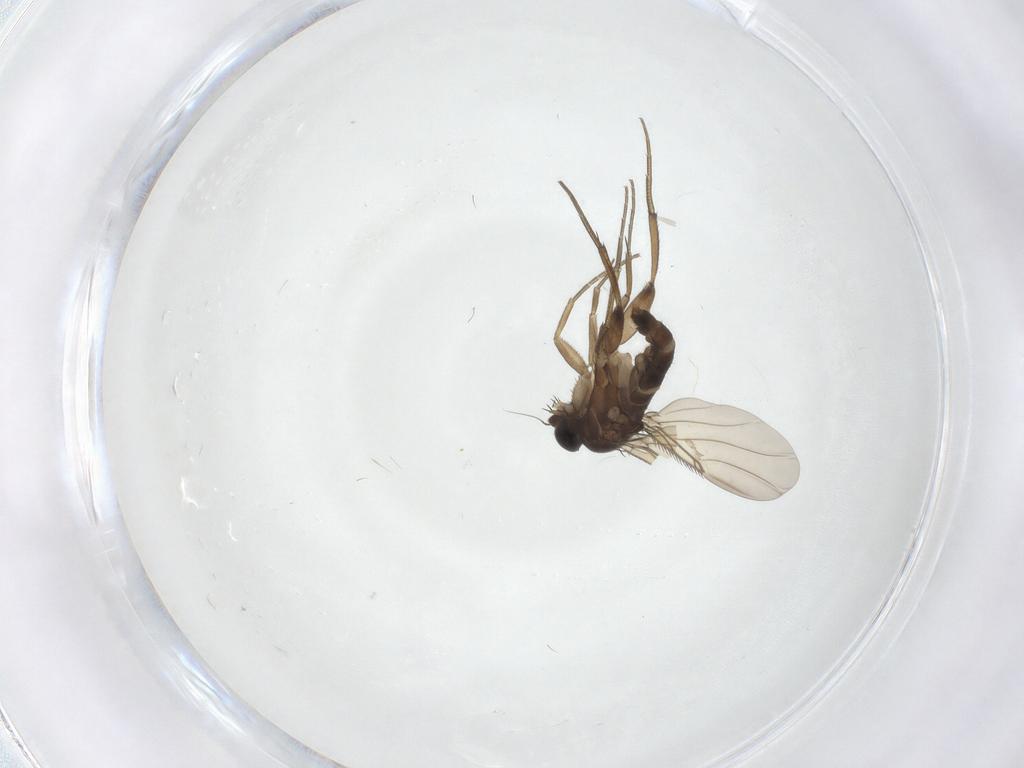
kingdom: Animalia
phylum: Arthropoda
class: Insecta
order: Diptera
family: Phoridae
